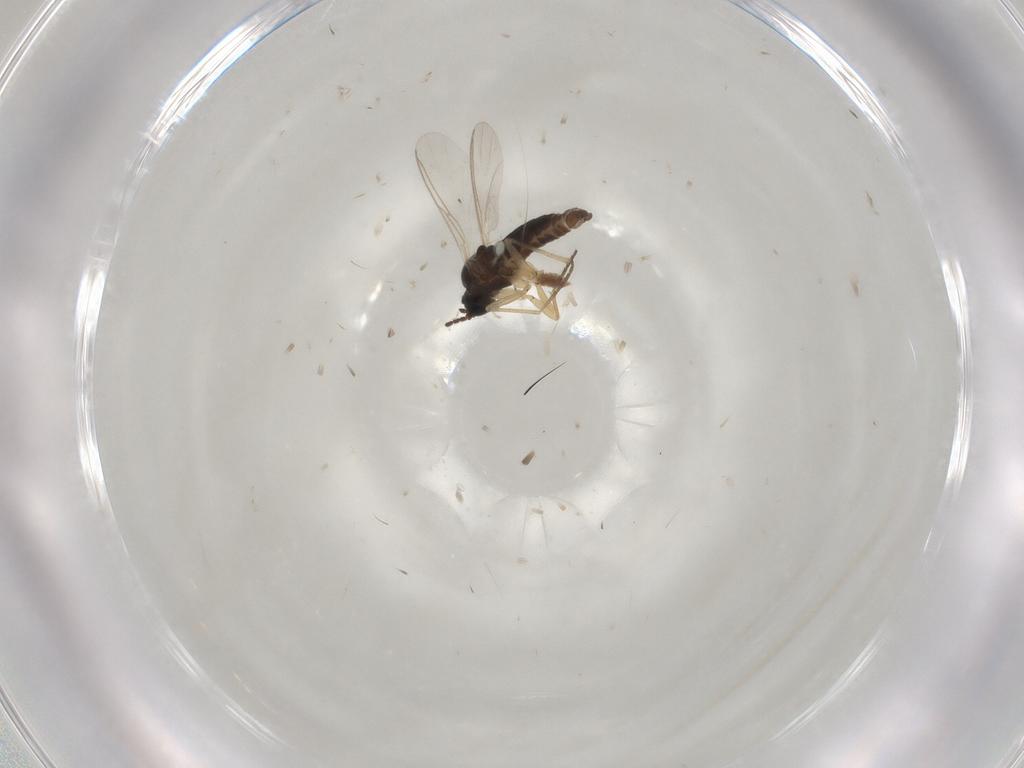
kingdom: Animalia
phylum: Arthropoda
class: Insecta
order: Diptera
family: Sciaridae
